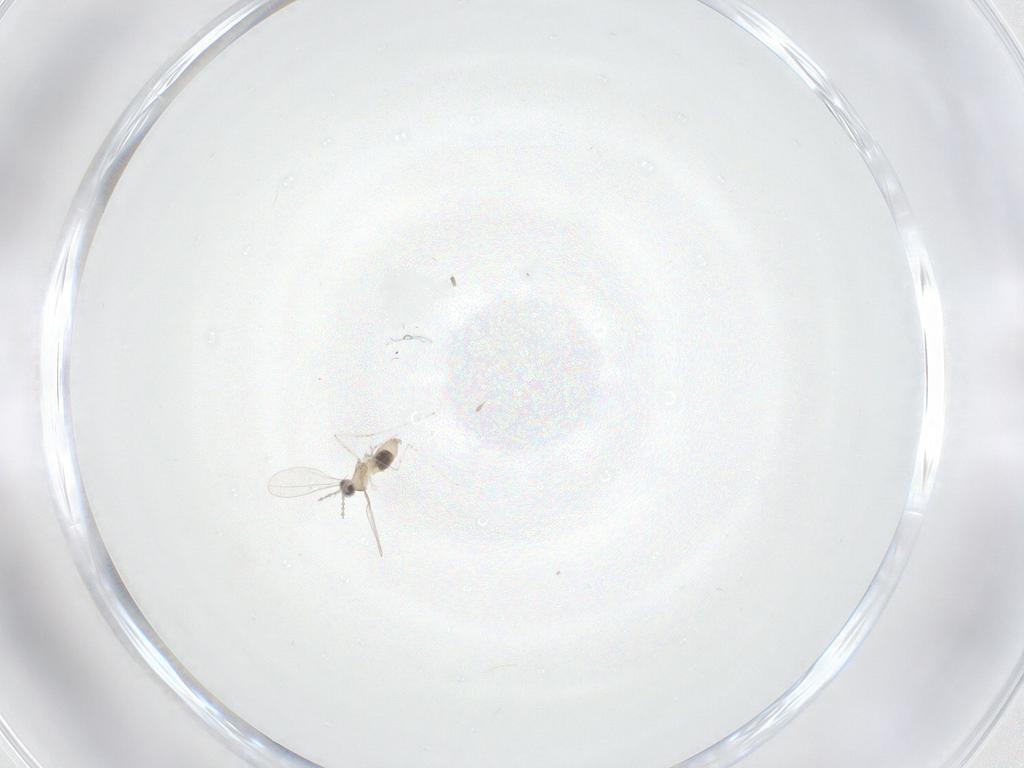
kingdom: Animalia
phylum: Arthropoda
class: Insecta
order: Diptera
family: Cecidomyiidae
